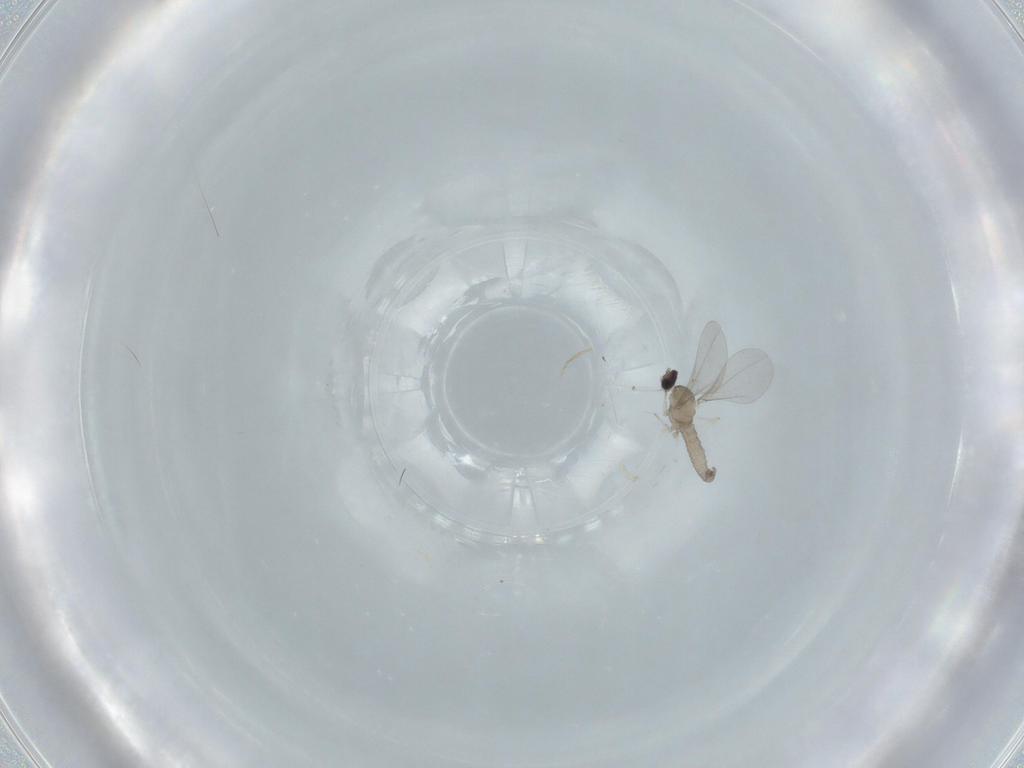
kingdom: Animalia
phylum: Arthropoda
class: Insecta
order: Diptera
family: Cecidomyiidae
